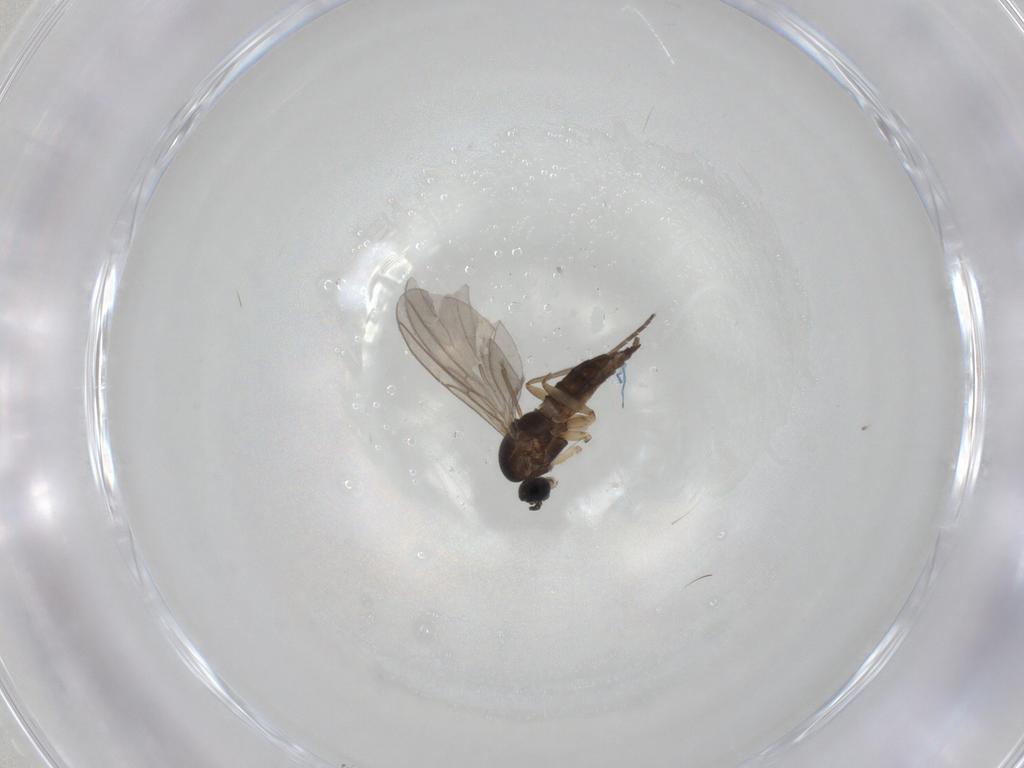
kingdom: Animalia
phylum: Arthropoda
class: Insecta
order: Diptera
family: Sciaridae
